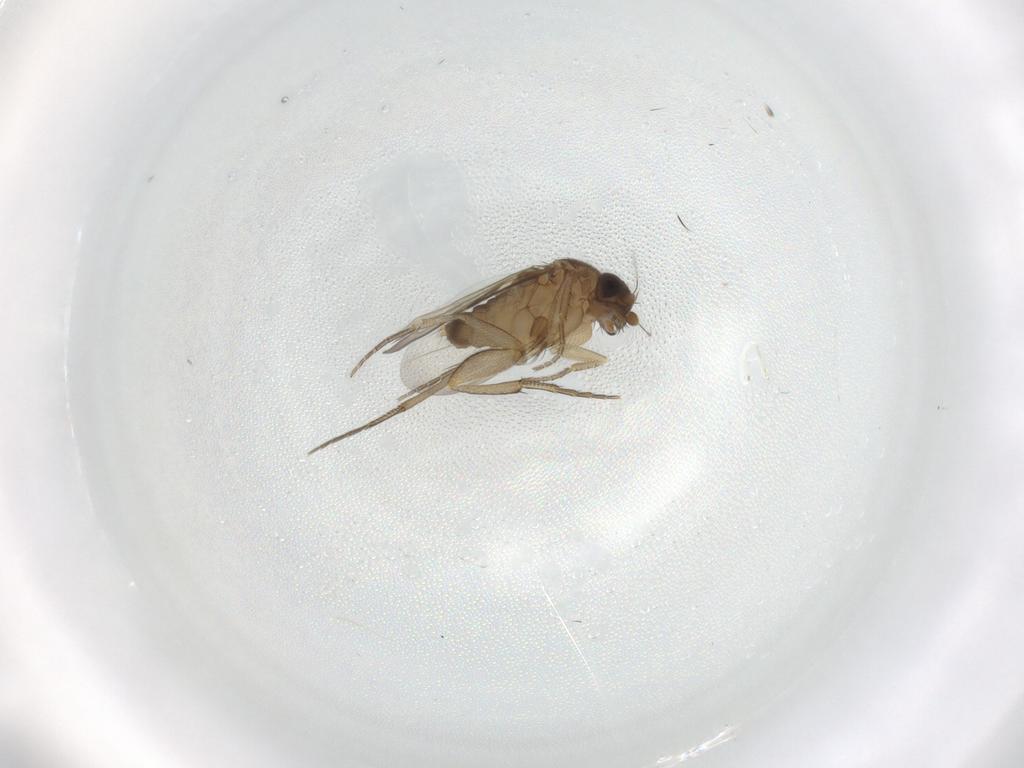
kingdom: Animalia
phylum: Arthropoda
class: Insecta
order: Diptera
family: Phoridae
